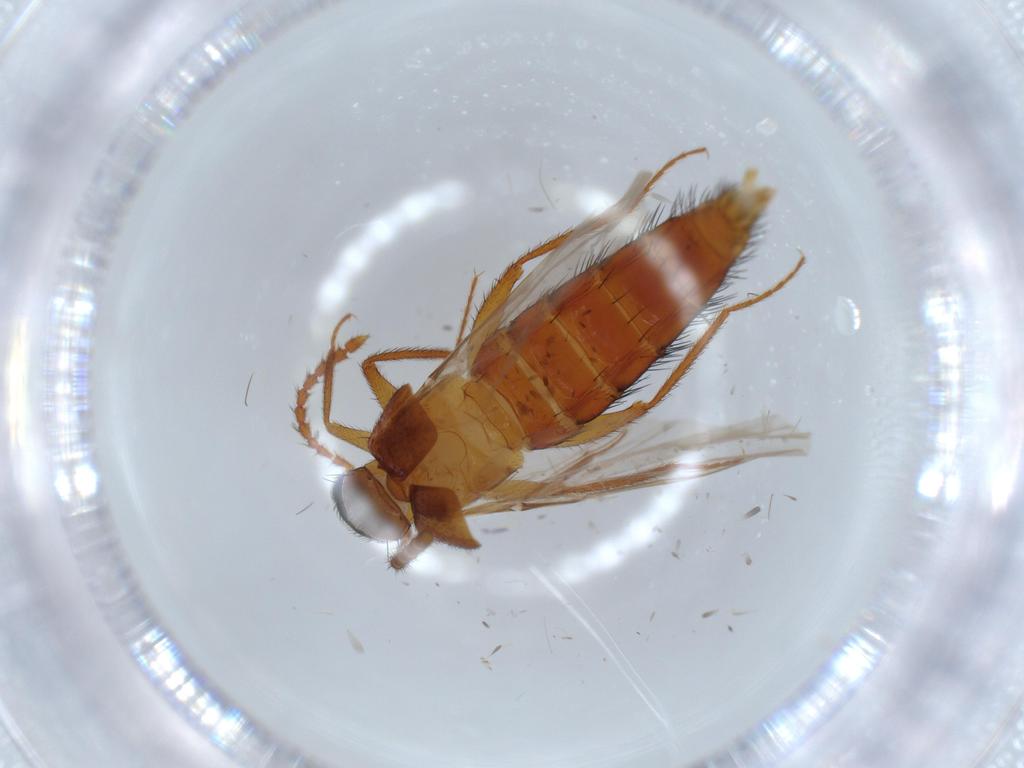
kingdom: Animalia
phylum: Arthropoda
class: Insecta
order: Coleoptera
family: Staphylinidae
